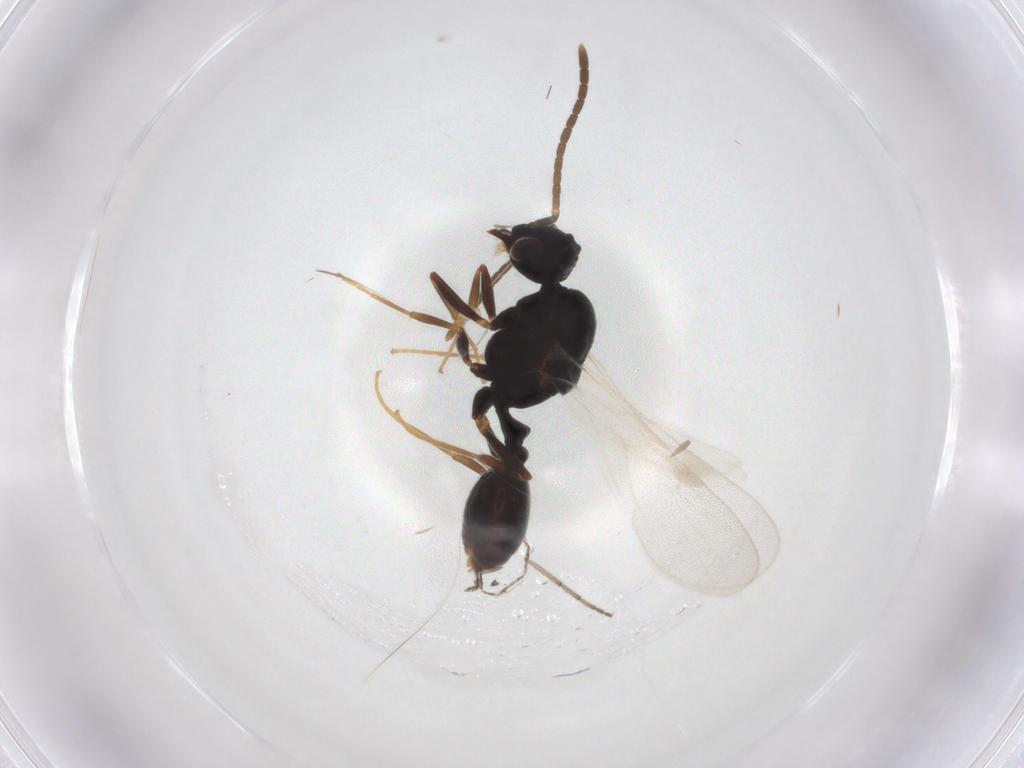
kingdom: Animalia
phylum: Arthropoda
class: Insecta
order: Hymenoptera
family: Formicidae
